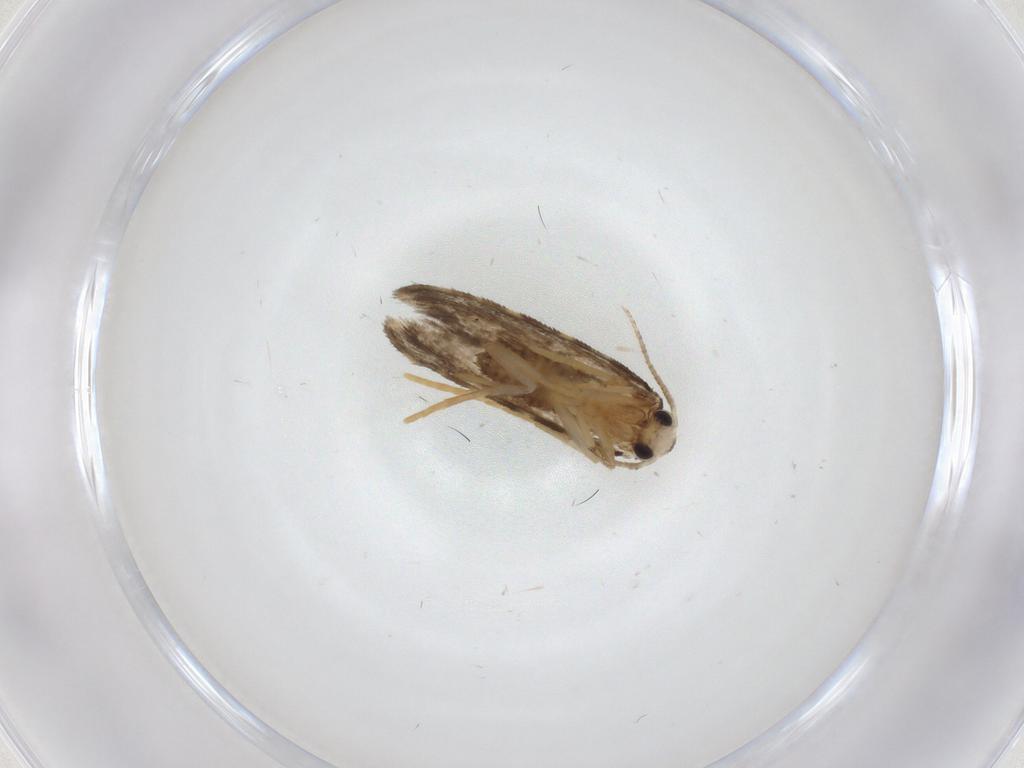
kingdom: Animalia
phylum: Arthropoda
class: Insecta
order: Lepidoptera
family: Psychidae
